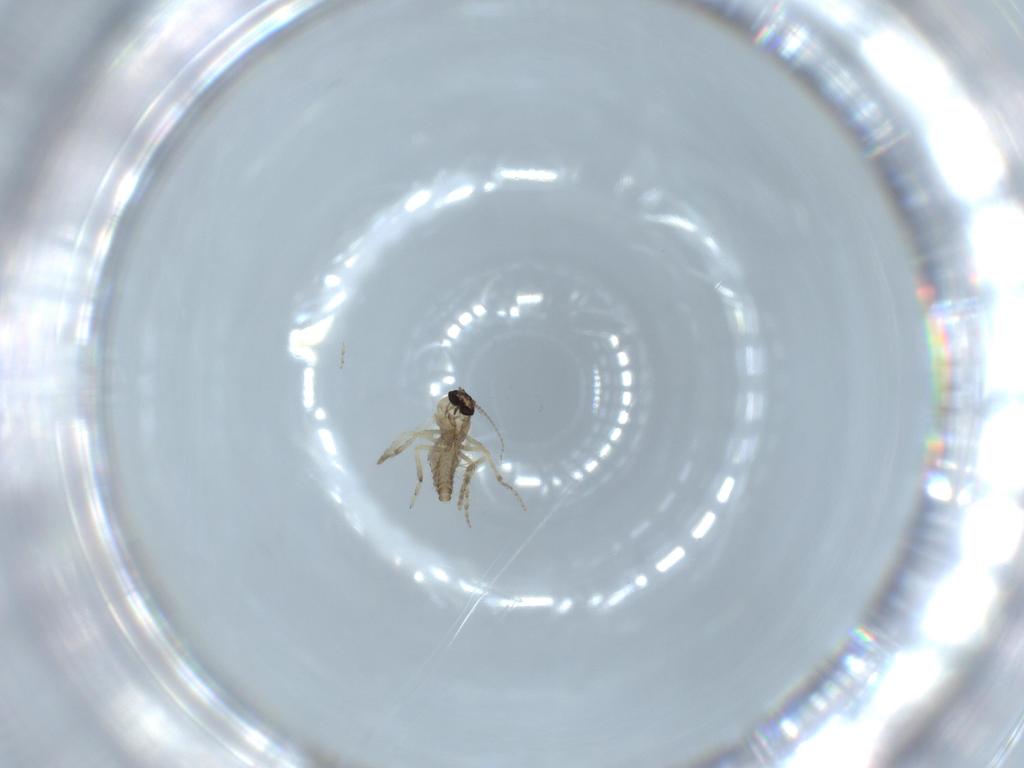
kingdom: Animalia
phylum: Arthropoda
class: Insecta
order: Diptera
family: Ceratopogonidae
